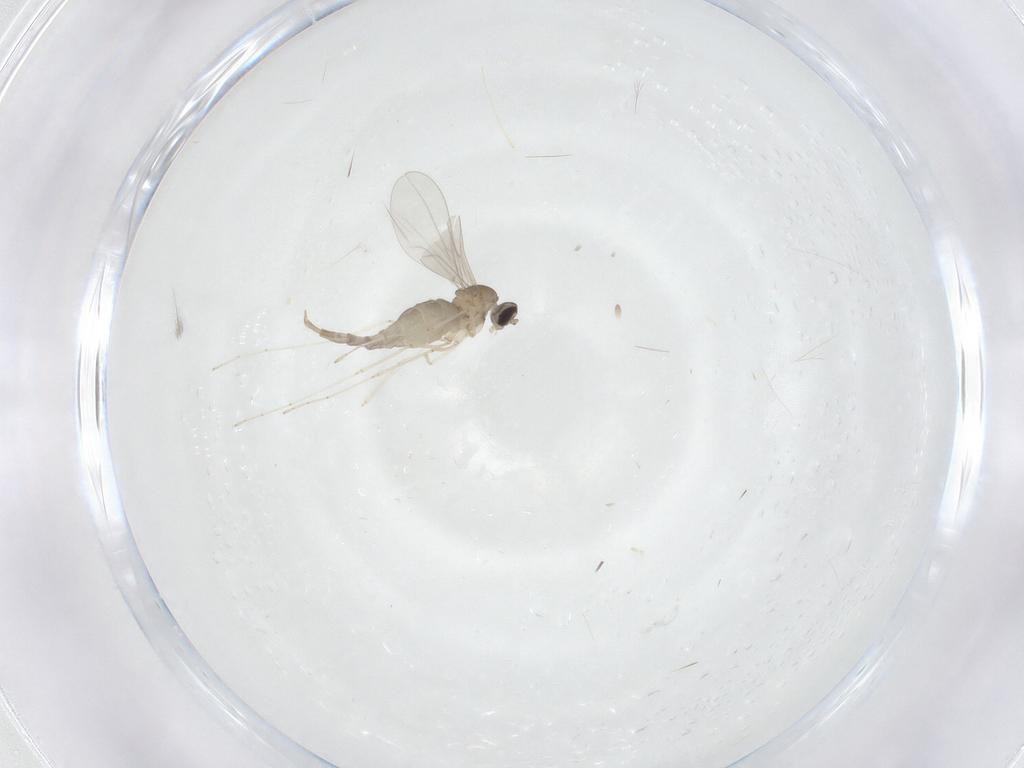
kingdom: Animalia
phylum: Arthropoda
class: Insecta
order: Diptera
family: Cecidomyiidae
